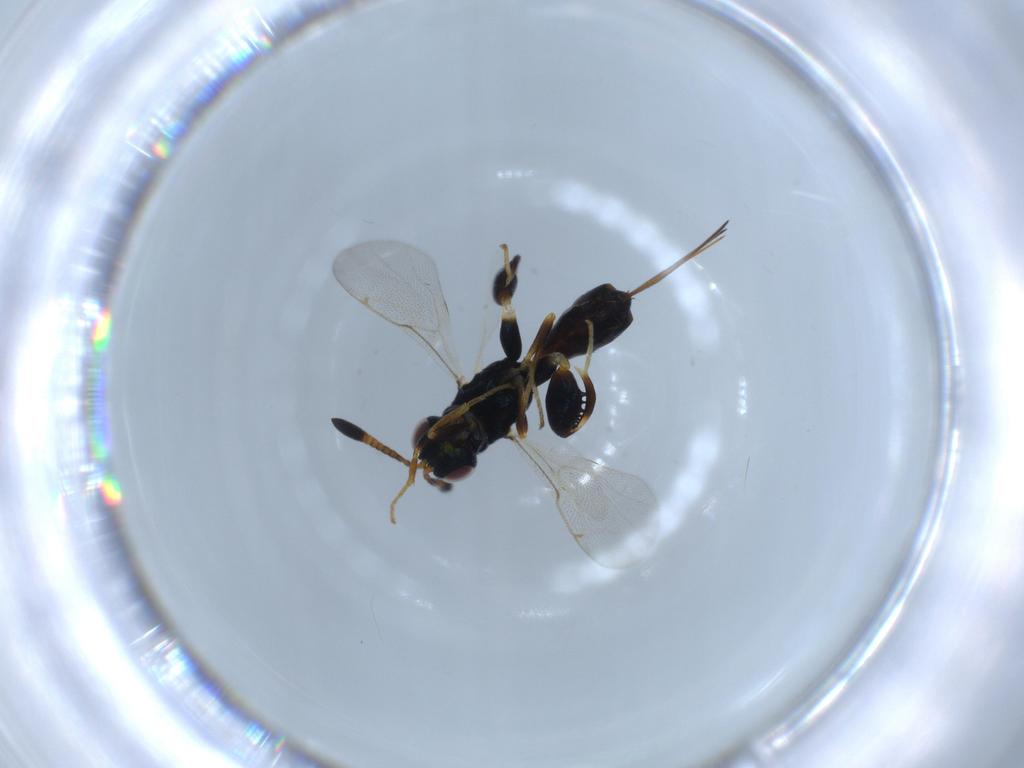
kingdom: Animalia
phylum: Arthropoda
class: Insecta
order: Hymenoptera
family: Torymidae
